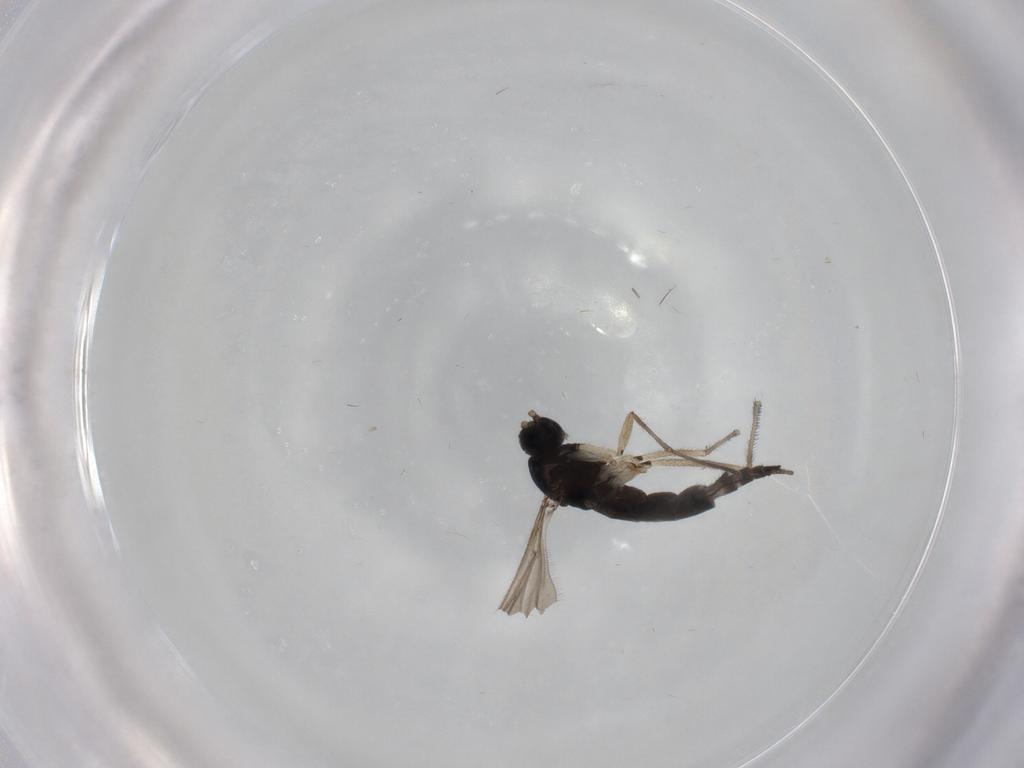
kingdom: Animalia
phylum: Arthropoda
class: Insecta
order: Diptera
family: Sciaridae
